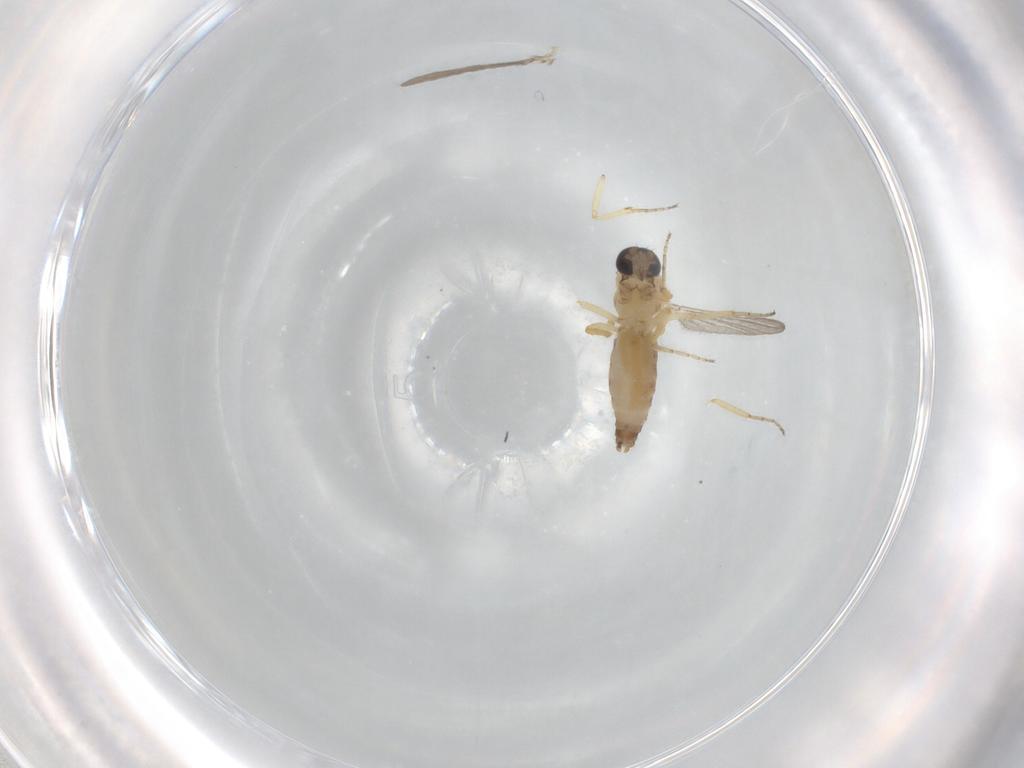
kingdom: Animalia
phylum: Arthropoda
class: Insecta
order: Diptera
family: Ceratopogonidae
